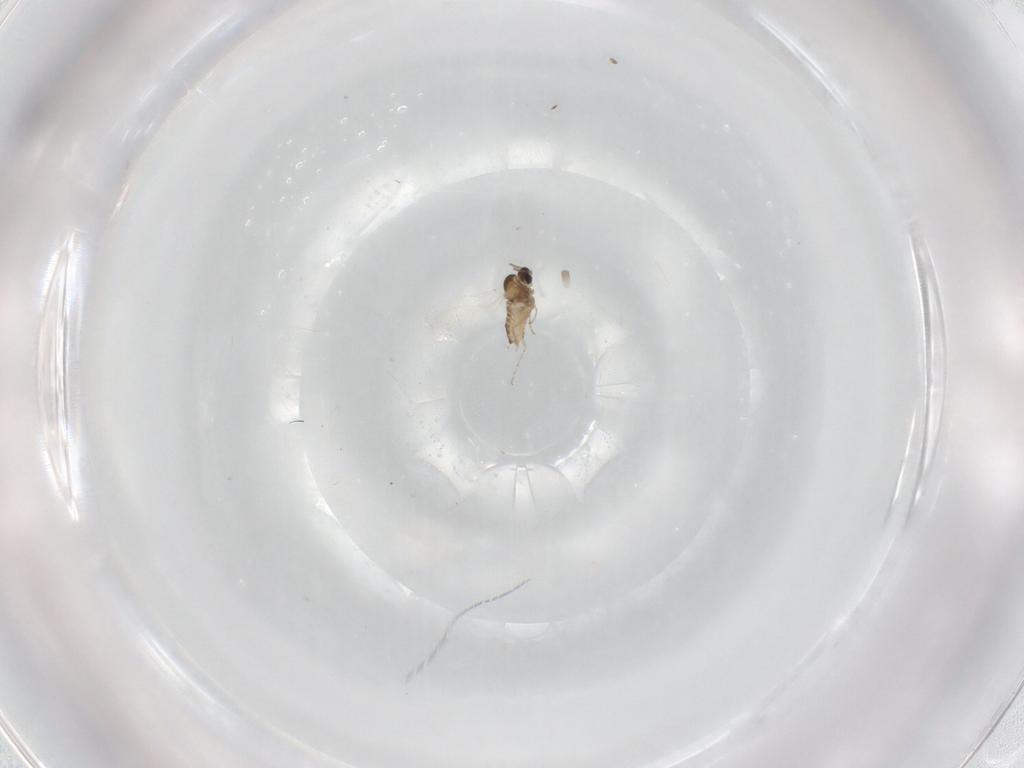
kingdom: Animalia
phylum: Arthropoda
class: Insecta
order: Diptera
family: Cecidomyiidae
